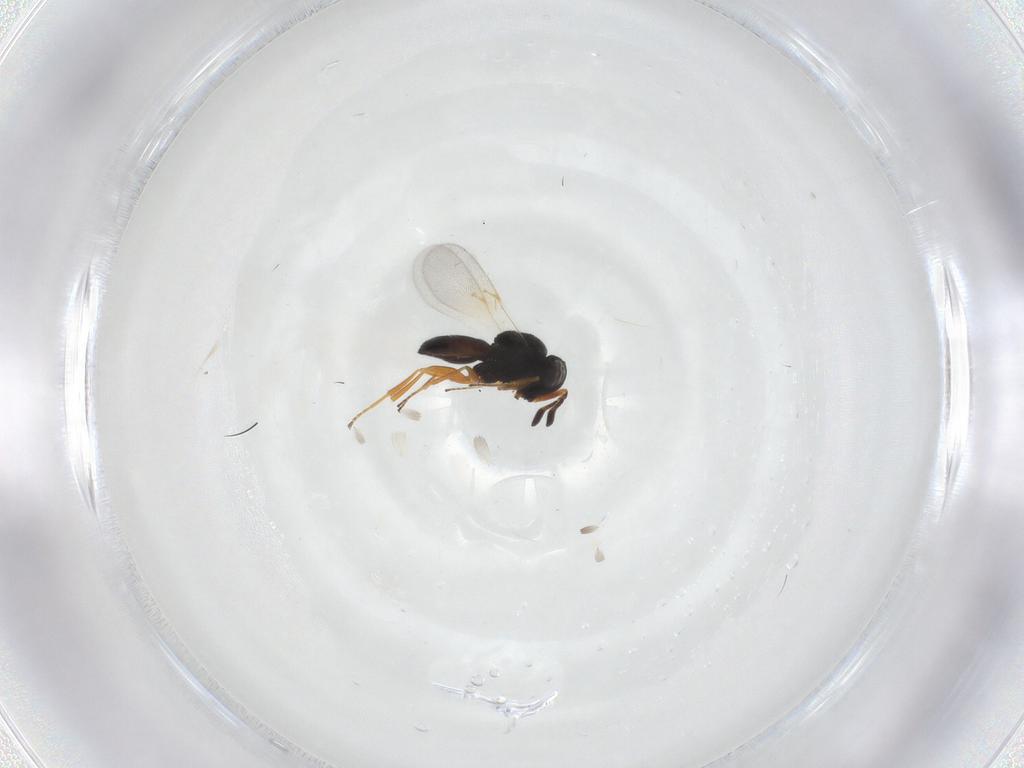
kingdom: Animalia
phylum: Arthropoda
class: Insecta
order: Hymenoptera
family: Scelionidae
